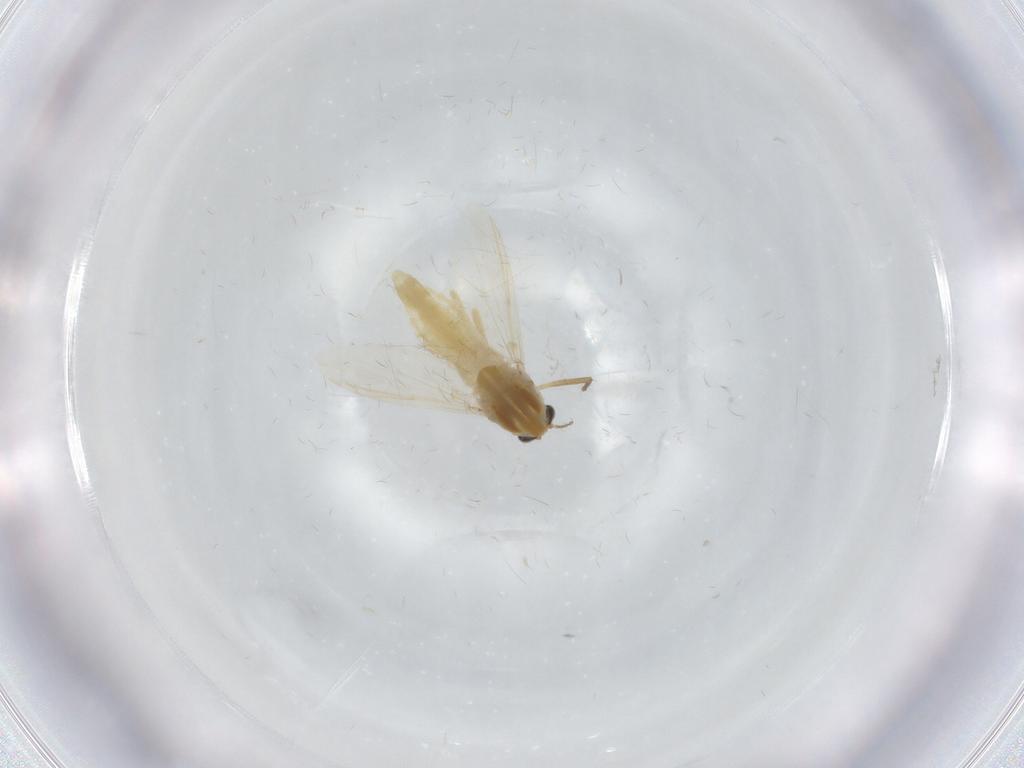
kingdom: Animalia
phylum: Arthropoda
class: Insecta
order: Diptera
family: Chironomidae
